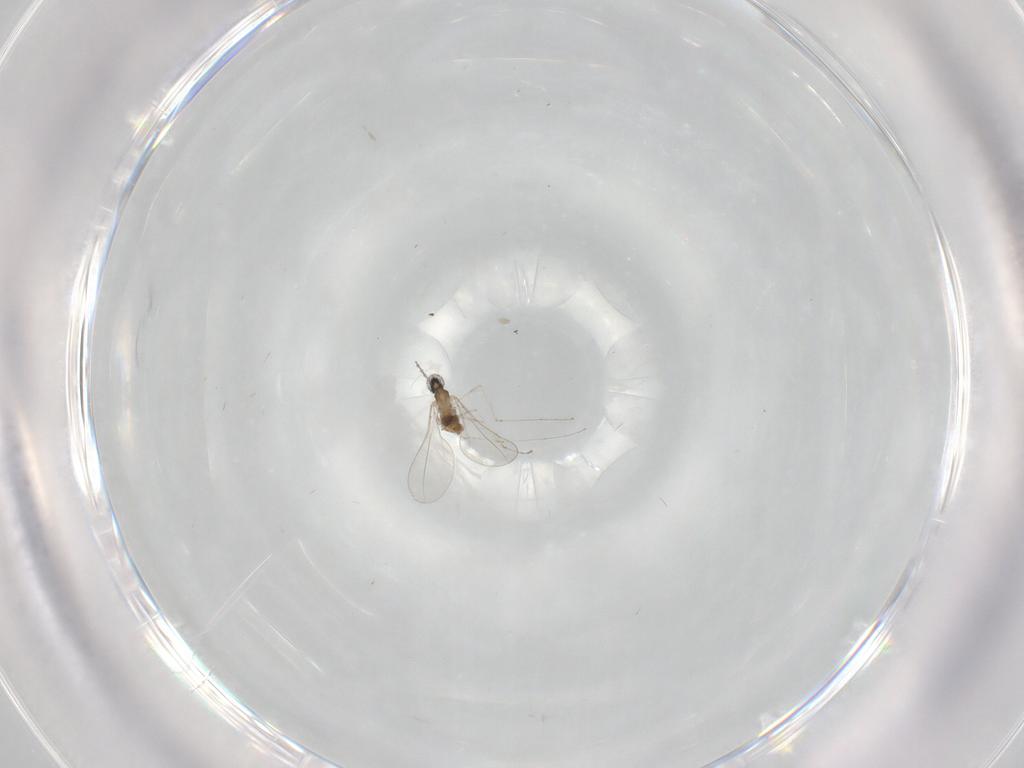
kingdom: Animalia
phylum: Arthropoda
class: Insecta
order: Diptera
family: Cecidomyiidae
